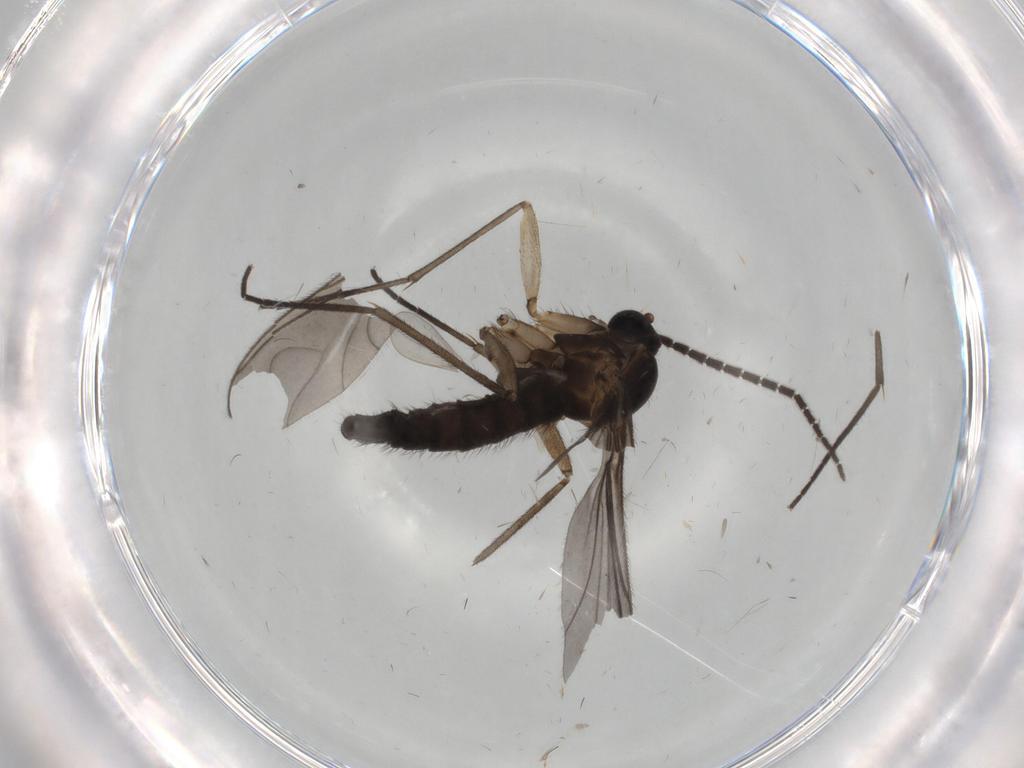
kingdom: Animalia
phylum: Arthropoda
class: Insecta
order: Diptera
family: Sciaridae
